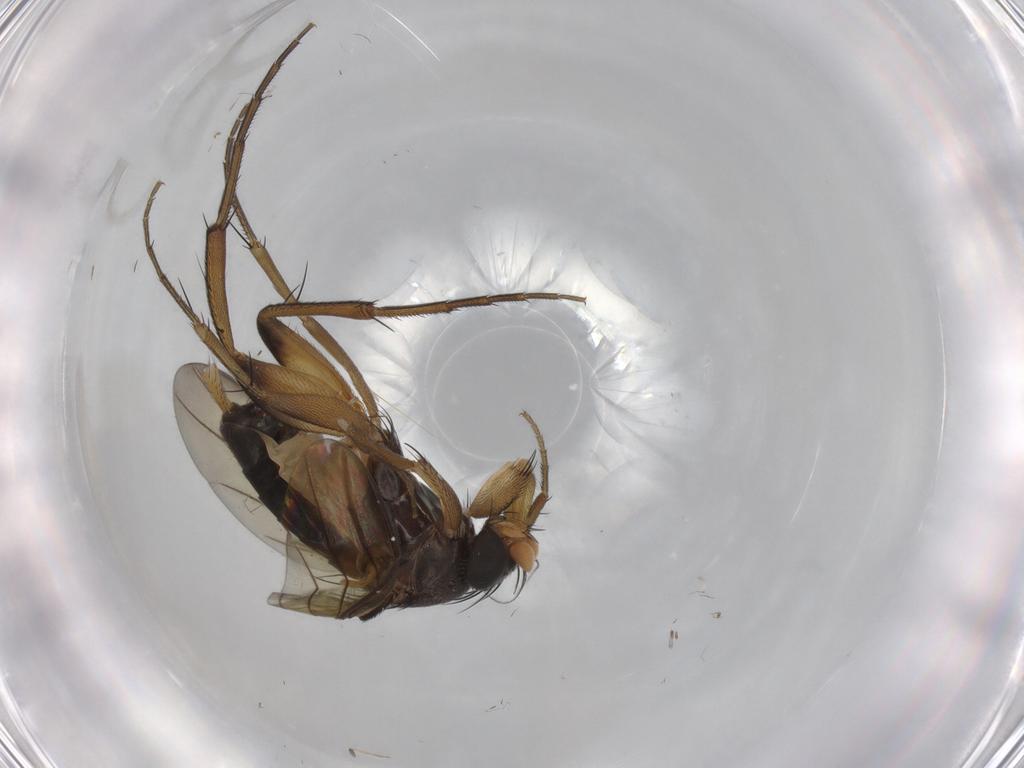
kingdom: Animalia
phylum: Arthropoda
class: Insecta
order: Diptera
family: Phoridae
